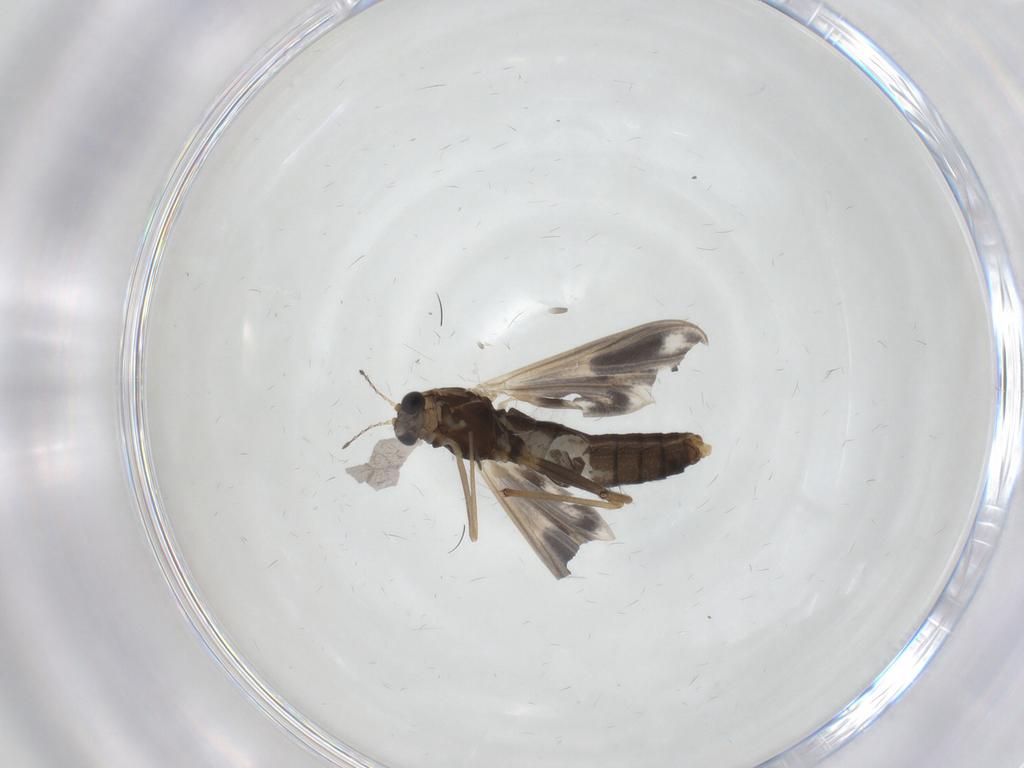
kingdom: Animalia
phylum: Arthropoda
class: Insecta
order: Diptera
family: Chironomidae
